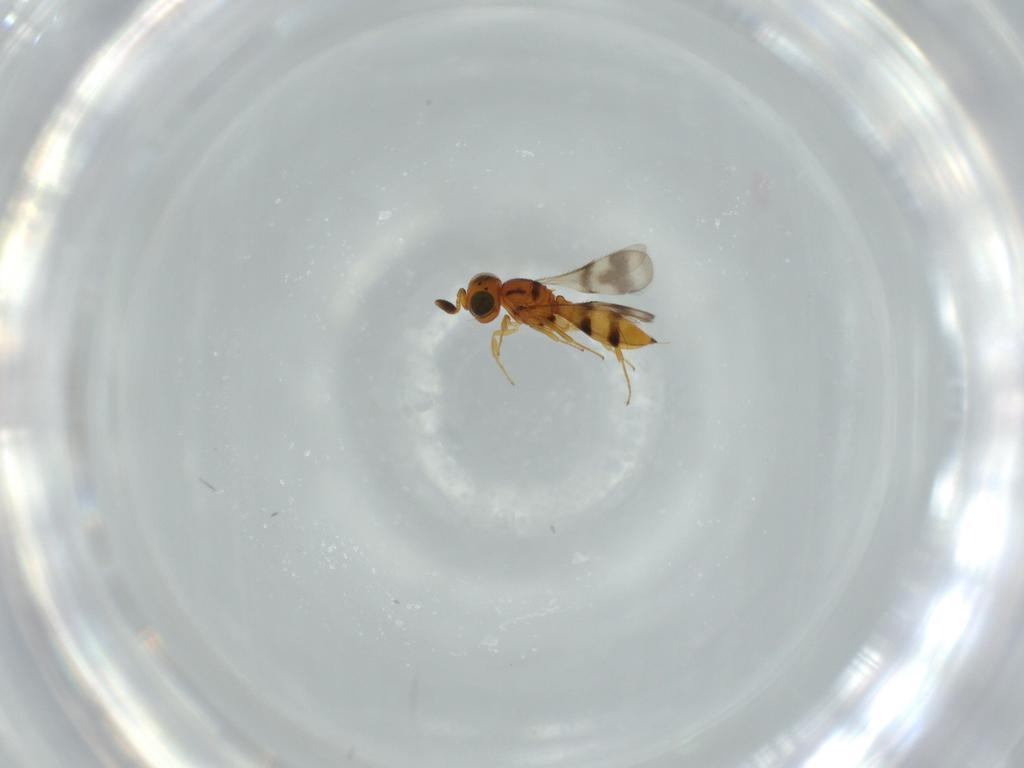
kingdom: Animalia
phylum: Arthropoda
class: Insecta
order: Hymenoptera
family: Scelionidae
